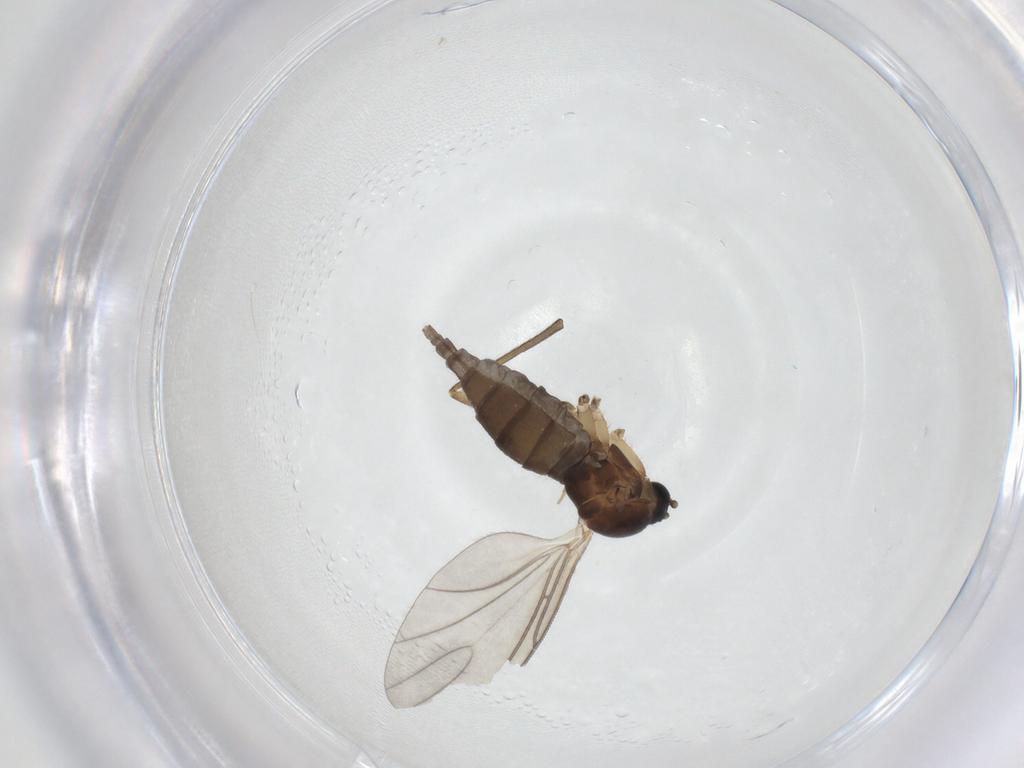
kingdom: Animalia
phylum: Arthropoda
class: Insecta
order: Diptera
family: Sciaridae
